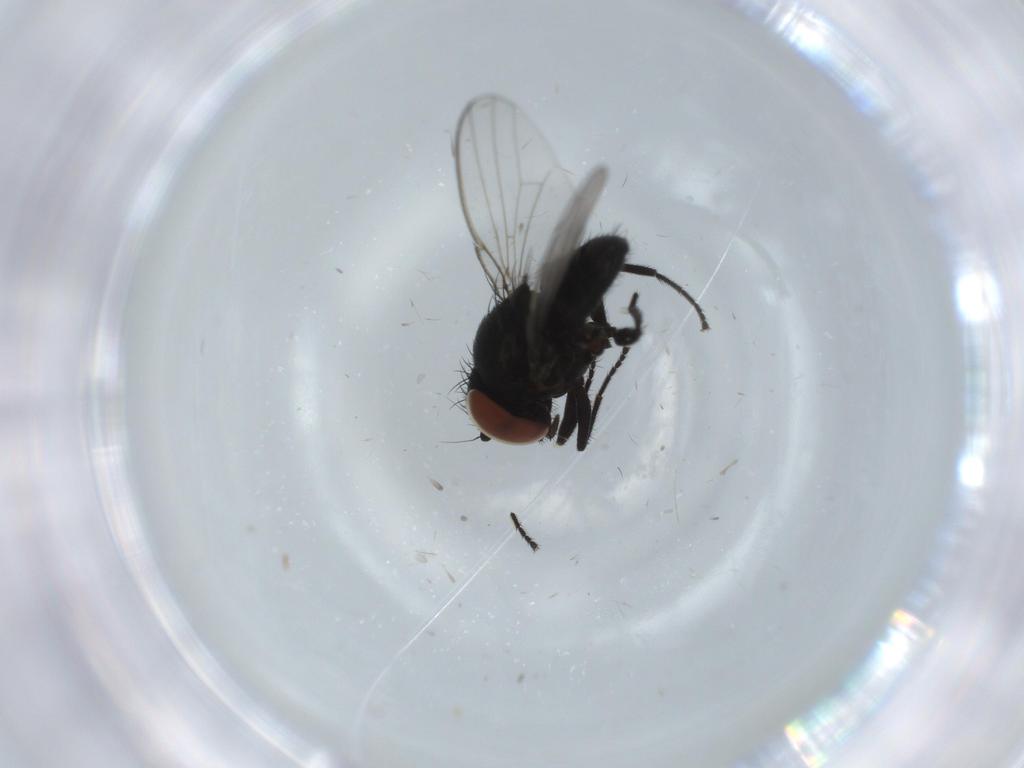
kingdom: Animalia
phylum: Arthropoda
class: Insecta
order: Diptera
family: Milichiidae
